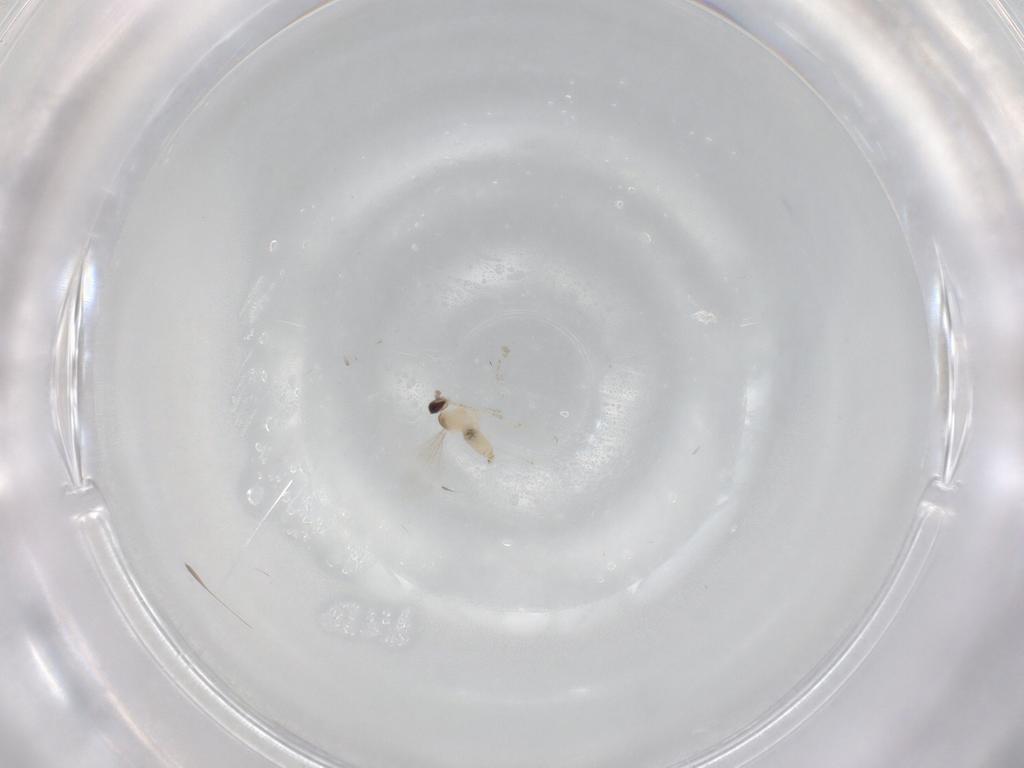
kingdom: Animalia
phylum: Arthropoda
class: Insecta
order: Diptera
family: Cecidomyiidae
